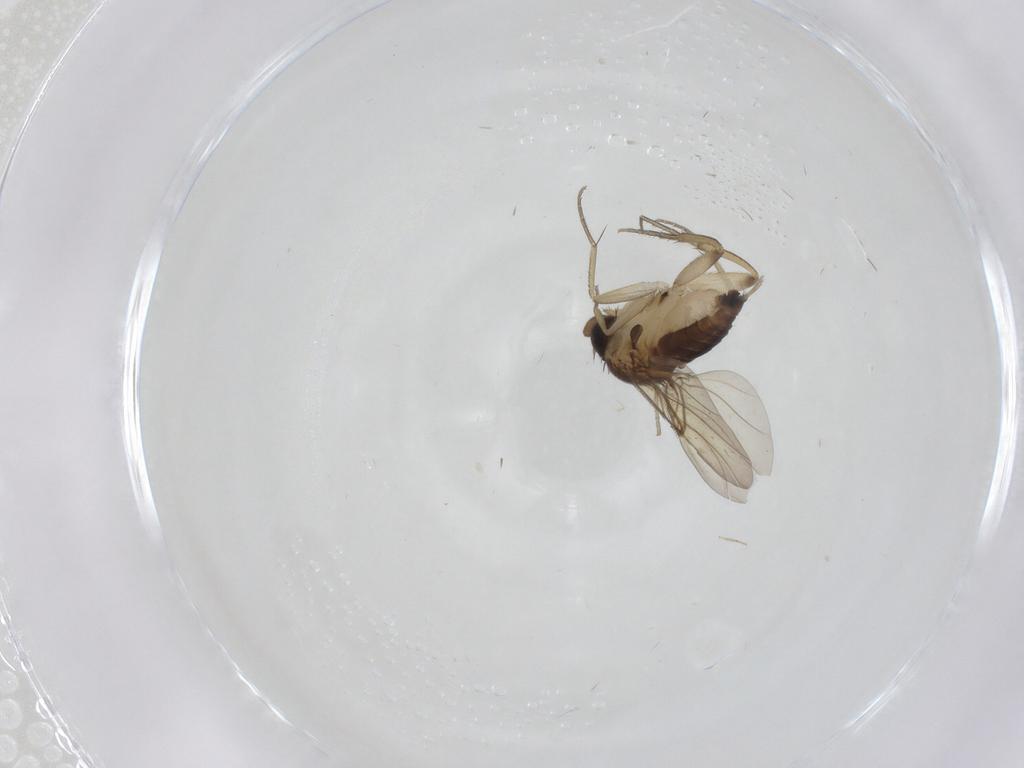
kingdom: Animalia
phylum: Arthropoda
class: Insecta
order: Diptera
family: Phoridae
